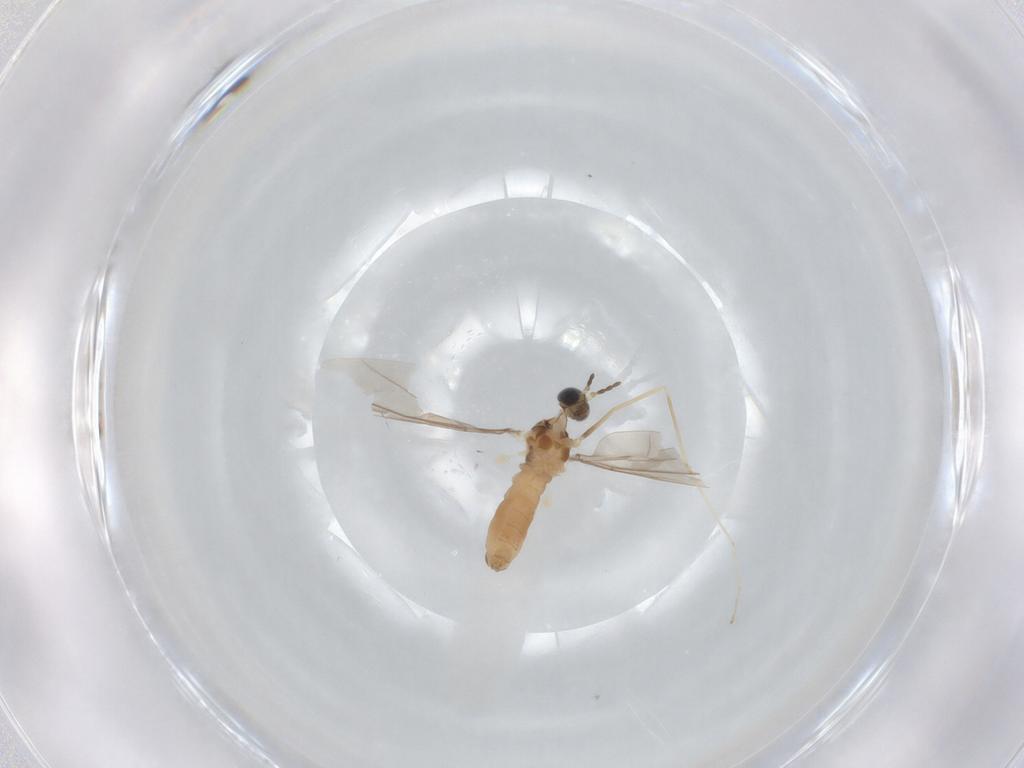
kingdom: Animalia
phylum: Arthropoda
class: Insecta
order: Diptera
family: Cecidomyiidae
